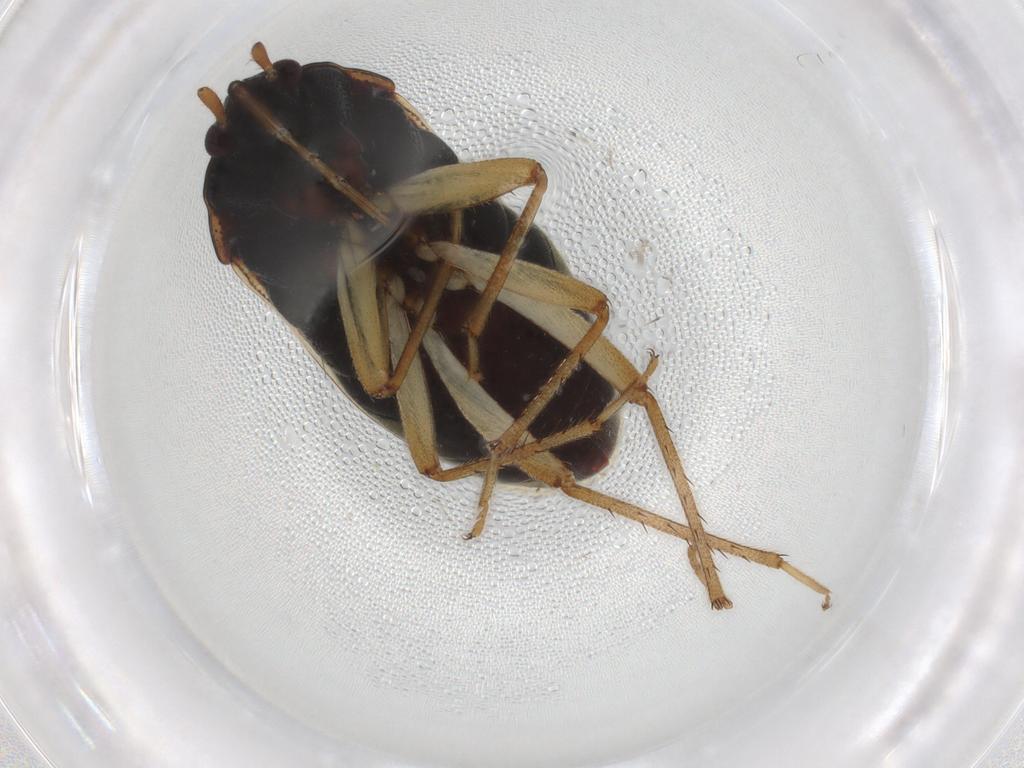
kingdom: Animalia
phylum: Arthropoda
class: Insecta
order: Hemiptera
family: Rhyparochromidae
